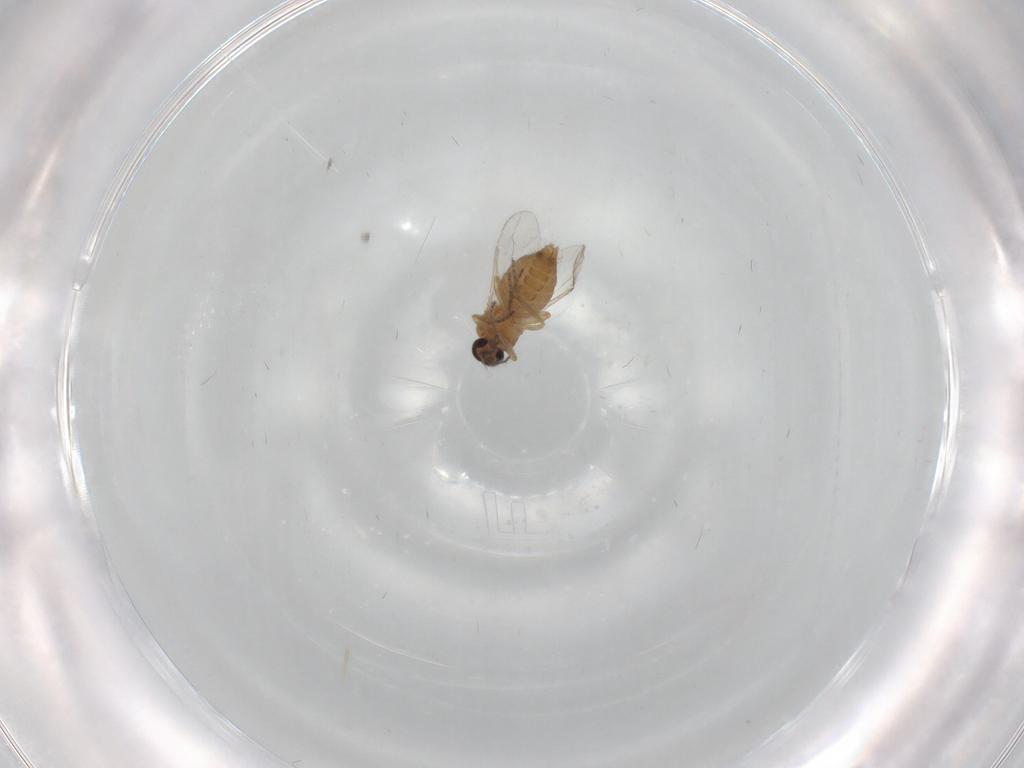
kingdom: Animalia
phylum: Arthropoda
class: Insecta
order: Diptera
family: Ceratopogonidae
